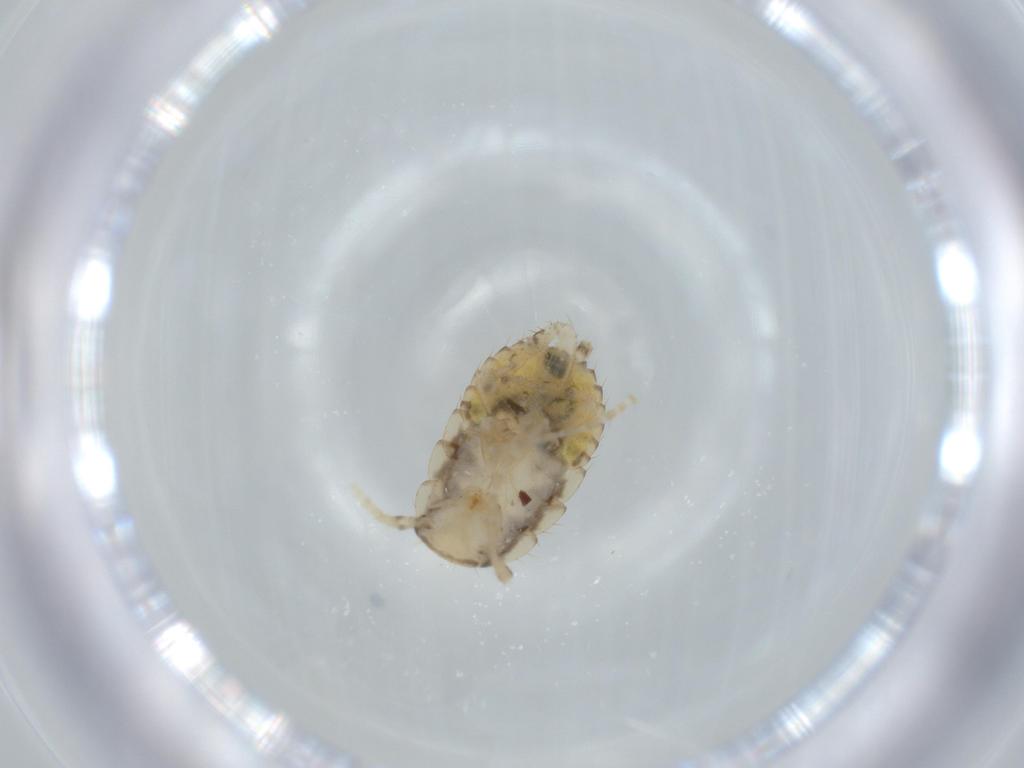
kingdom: Animalia
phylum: Arthropoda
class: Insecta
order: Blattodea
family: Ectobiidae
